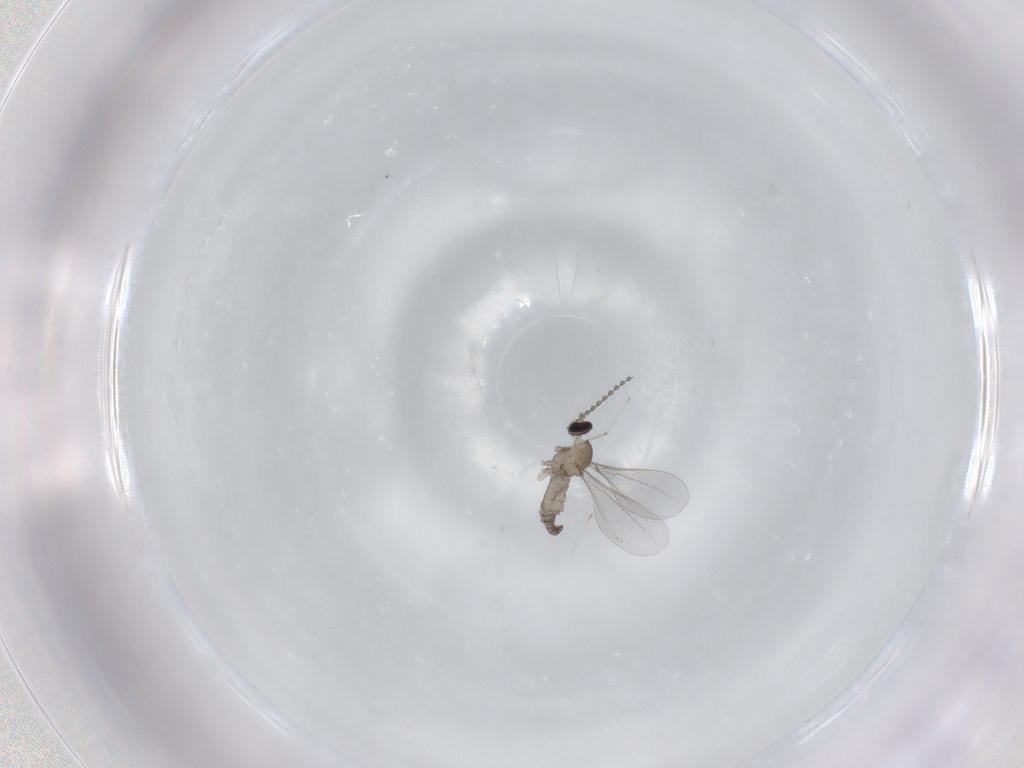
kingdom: Animalia
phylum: Arthropoda
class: Insecta
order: Diptera
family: Cecidomyiidae
